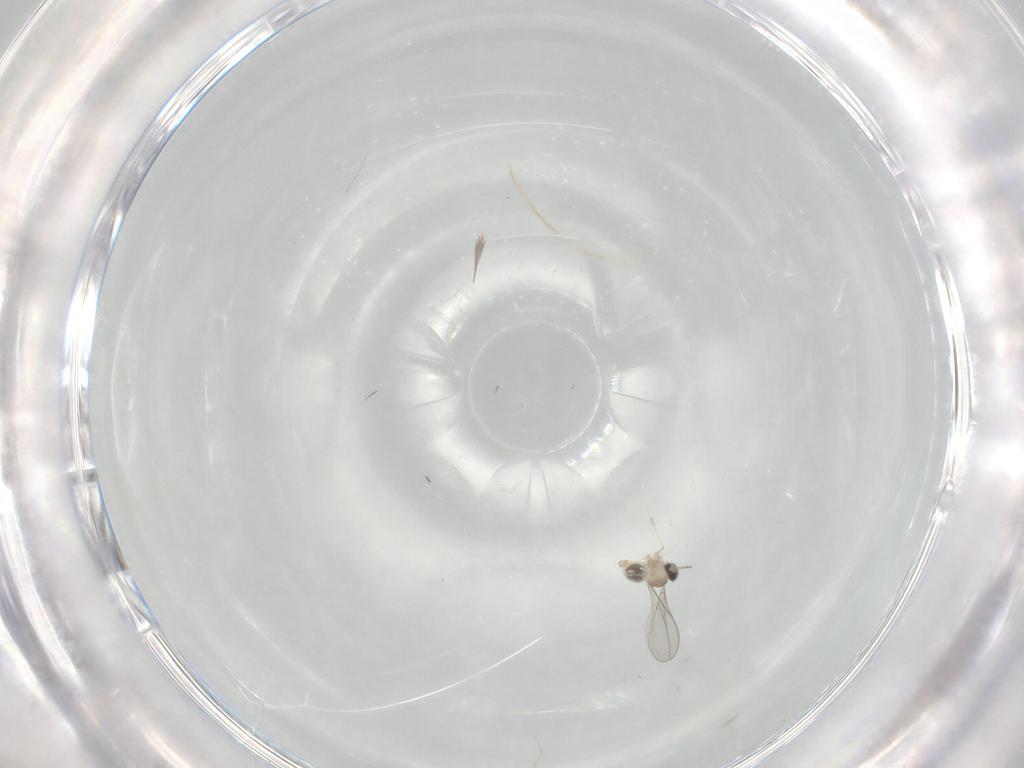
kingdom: Animalia
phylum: Arthropoda
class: Insecta
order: Diptera
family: Cecidomyiidae
